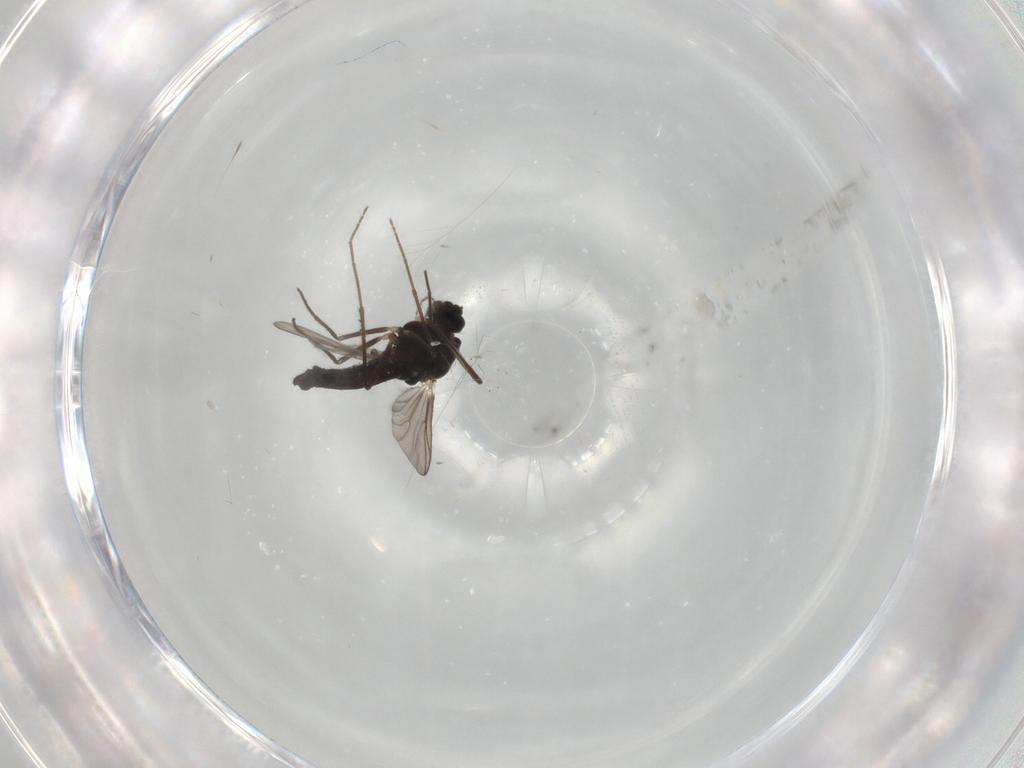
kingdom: Animalia
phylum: Arthropoda
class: Insecta
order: Diptera
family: Chironomidae
